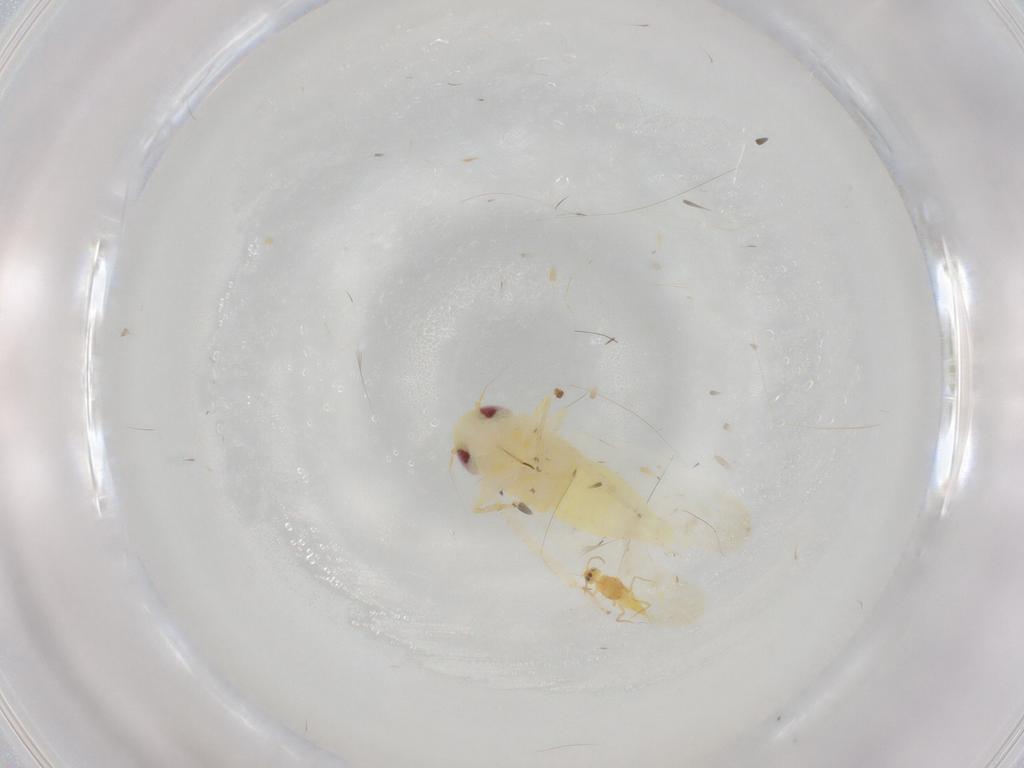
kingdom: Animalia
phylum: Arthropoda
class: Insecta
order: Hemiptera
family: Cicadellidae
